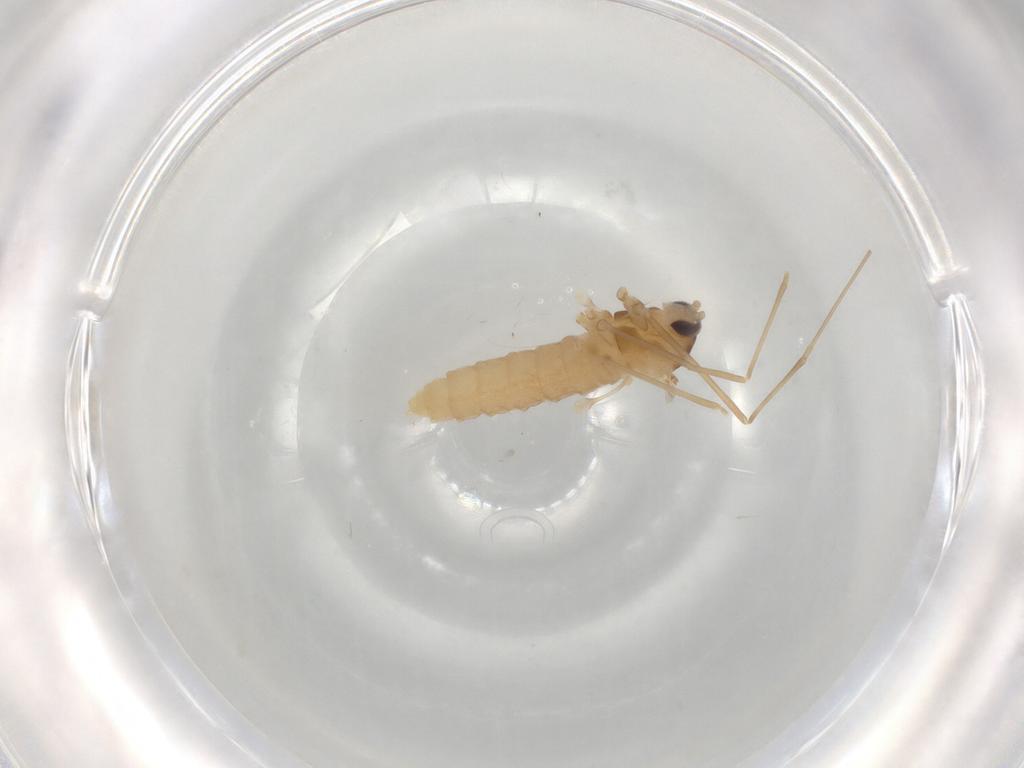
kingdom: Animalia
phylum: Arthropoda
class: Insecta
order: Diptera
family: Cecidomyiidae
